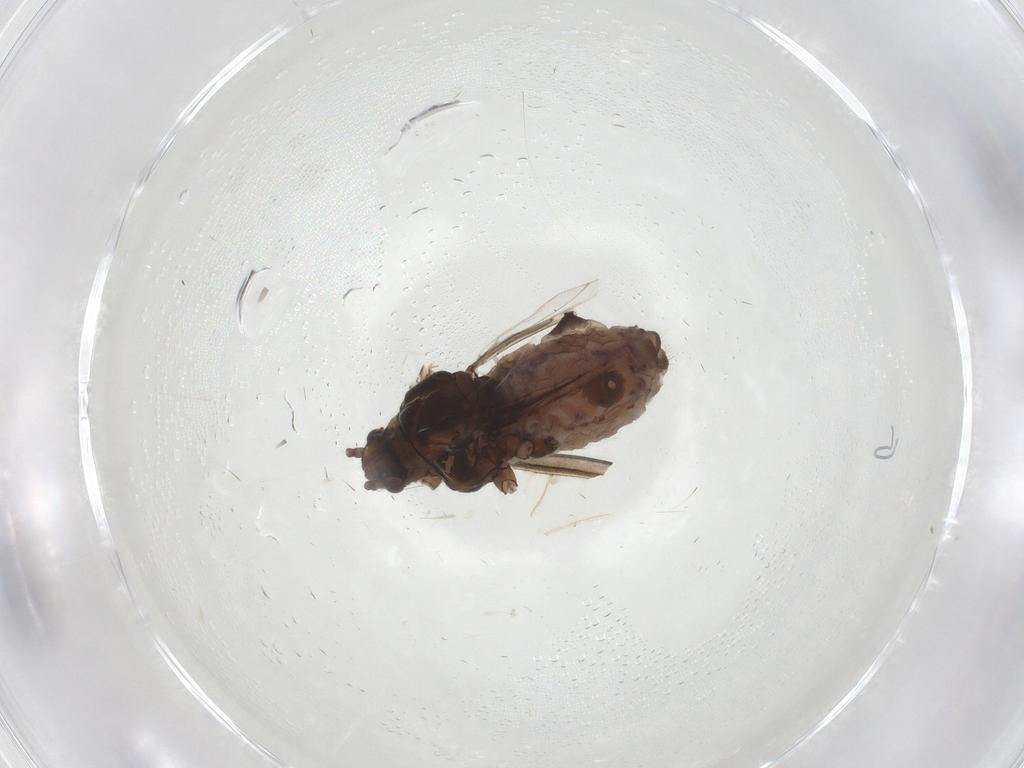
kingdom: Animalia
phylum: Arthropoda
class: Insecta
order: Hemiptera
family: Aphididae
